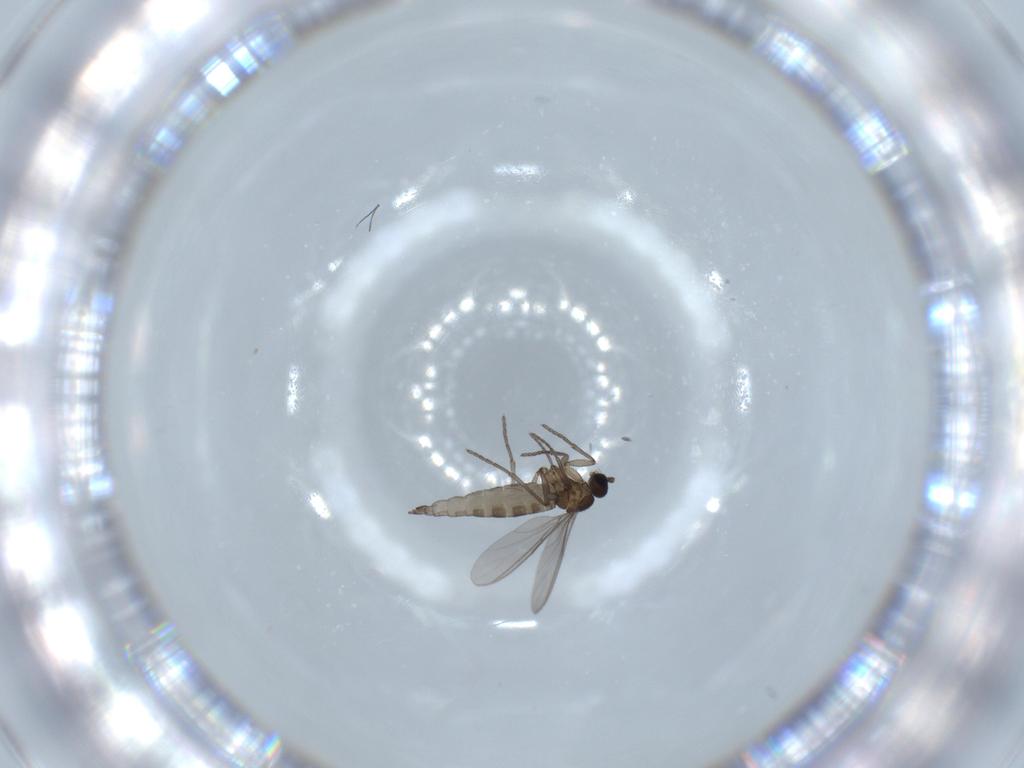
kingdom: Animalia
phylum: Arthropoda
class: Insecta
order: Diptera
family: Sciaridae
